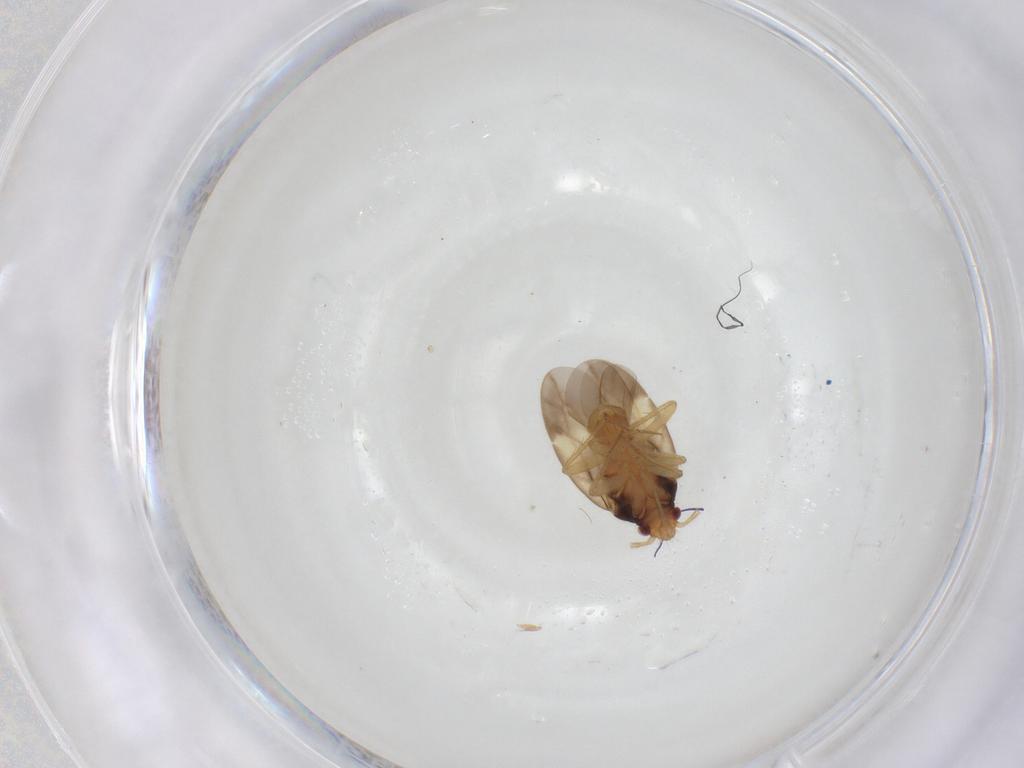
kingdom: Animalia
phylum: Arthropoda
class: Insecta
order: Hemiptera
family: Ceratocombidae
